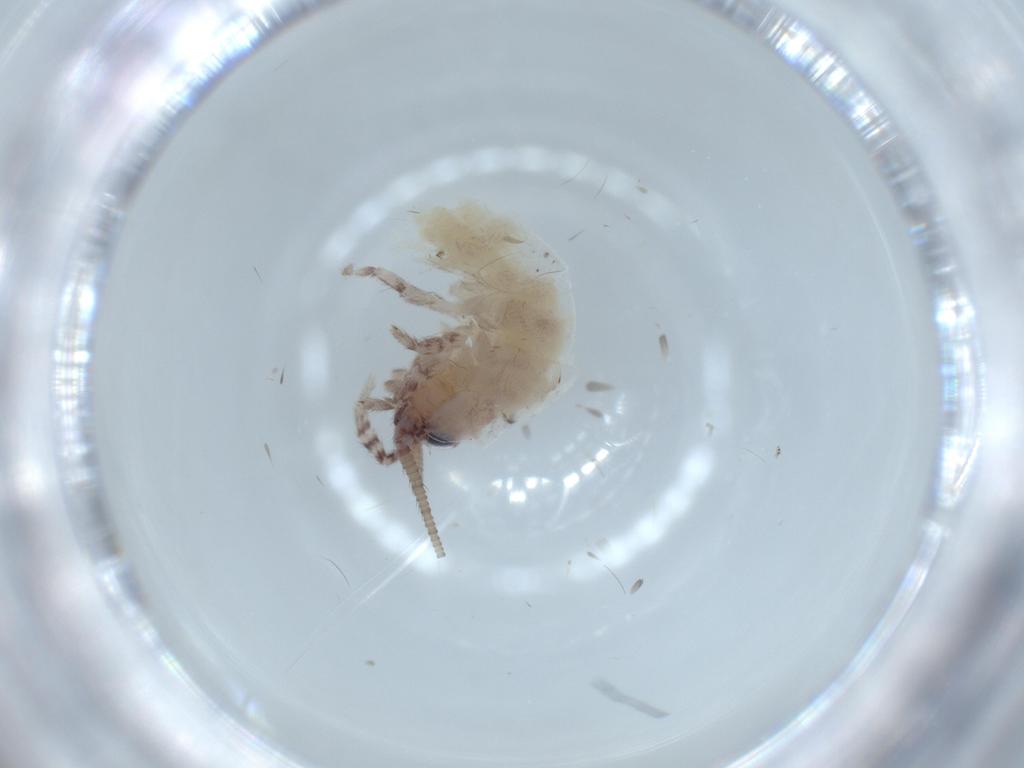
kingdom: Animalia
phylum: Arthropoda
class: Insecta
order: Archaeognatha
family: Machilidae
